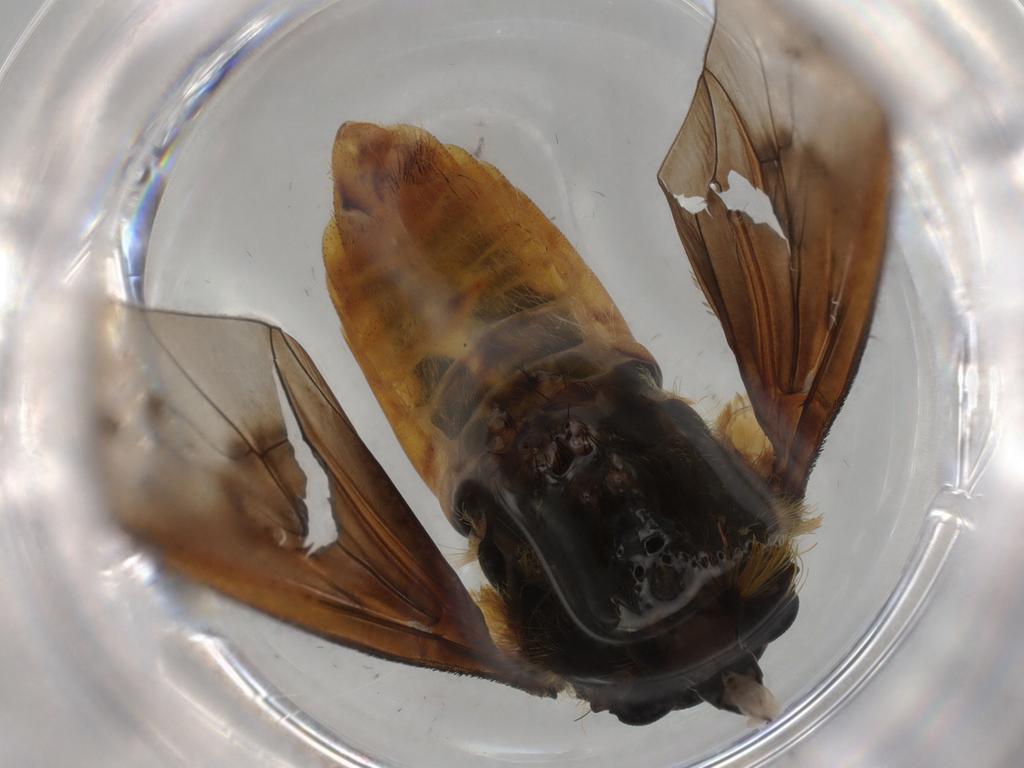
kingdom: Animalia
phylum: Arthropoda
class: Insecta
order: Diptera
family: Bombyliidae
